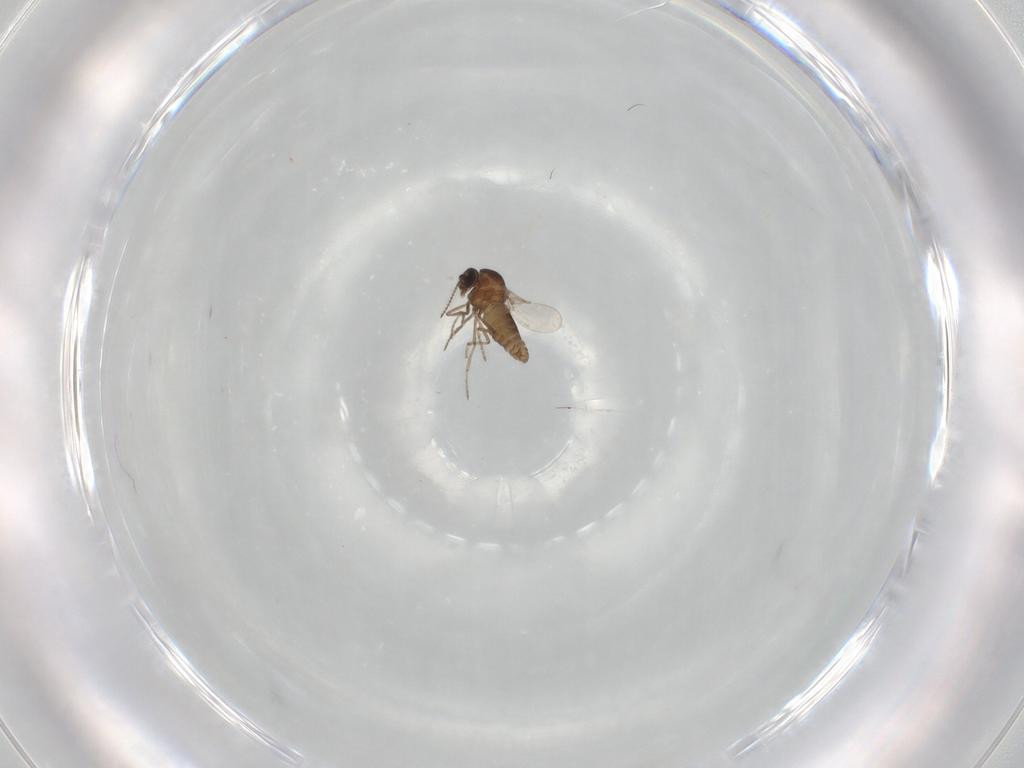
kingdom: Animalia
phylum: Arthropoda
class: Insecta
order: Diptera
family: Ceratopogonidae
